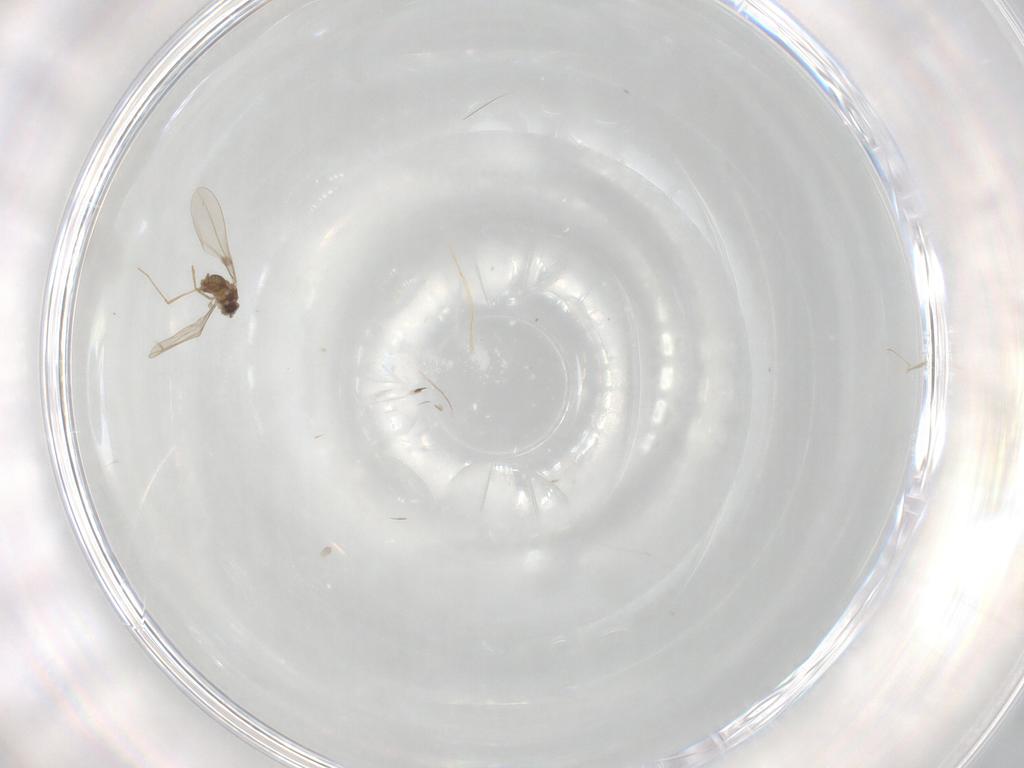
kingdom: Animalia
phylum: Arthropoda
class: Insecta
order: Diptera
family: Cecidomyiidae
